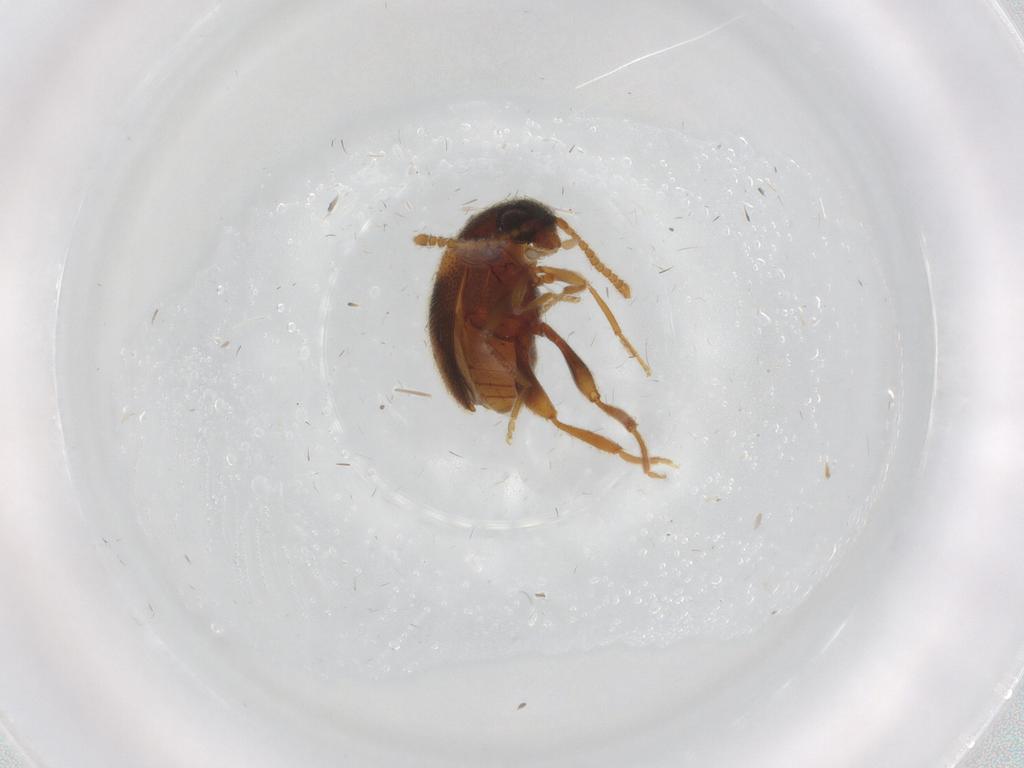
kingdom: Animalia
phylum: Arthropoda
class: Insecta
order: Coleoptera
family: Aderidae
